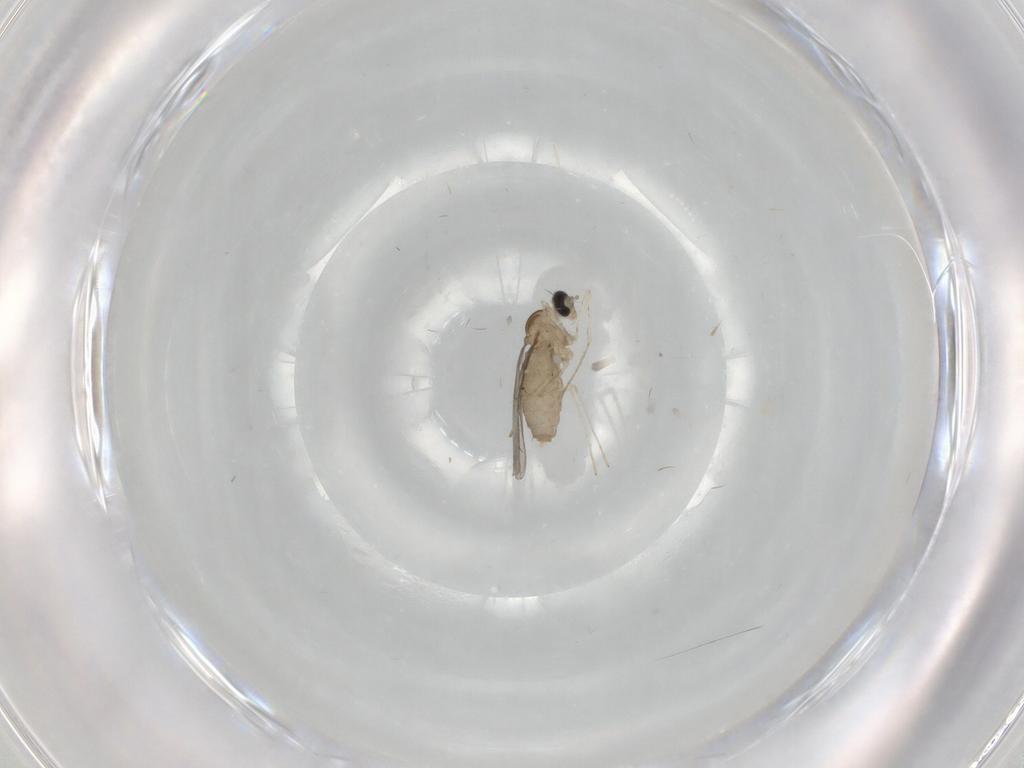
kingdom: Animalia
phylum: Arthropoda
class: Insecta
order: Diptera
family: Cecidomyiidae
